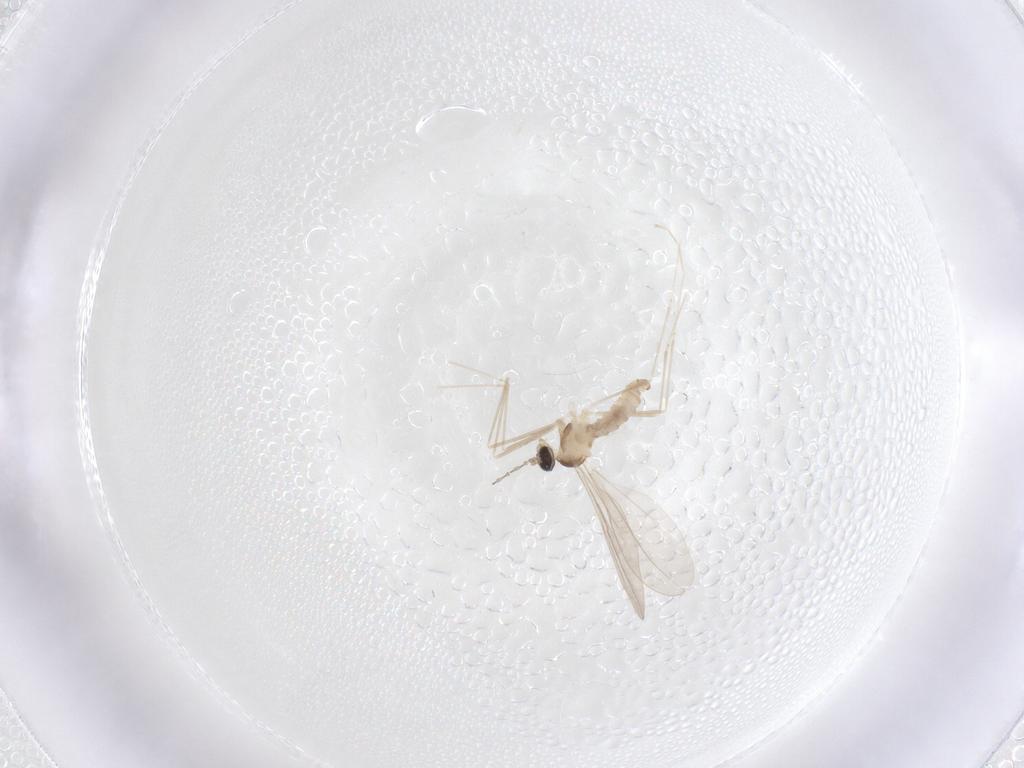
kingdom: Animalia
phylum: Arthropoda
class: Insecta
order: Diptera
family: Cecidomyiidae
